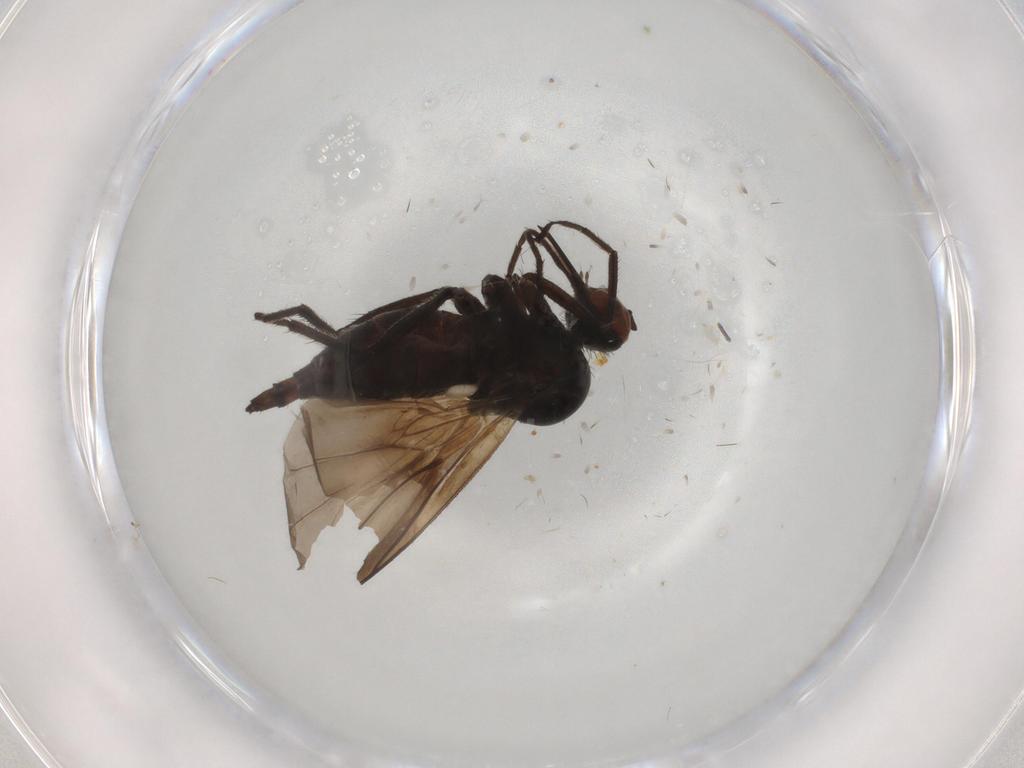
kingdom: Animalia
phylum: Arthropoda
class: Insecta
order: Diptera
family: Empididae
